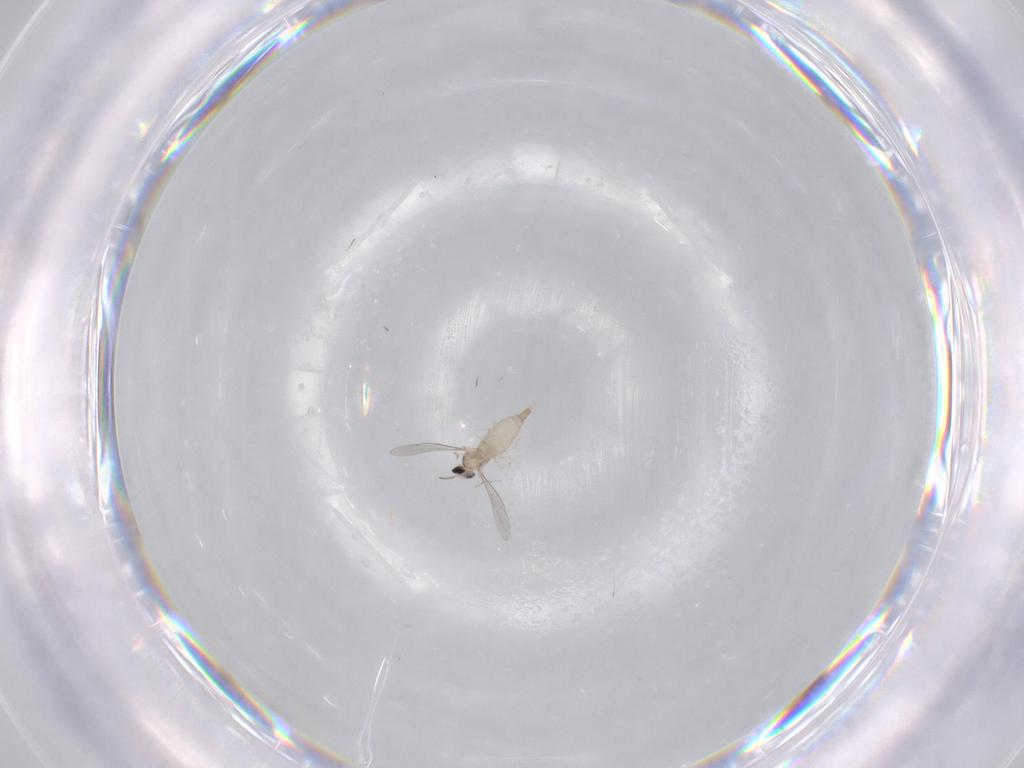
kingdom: Animalia
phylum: Arthropoda
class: Insecta
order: Diptera
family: Cecidomyiidae
